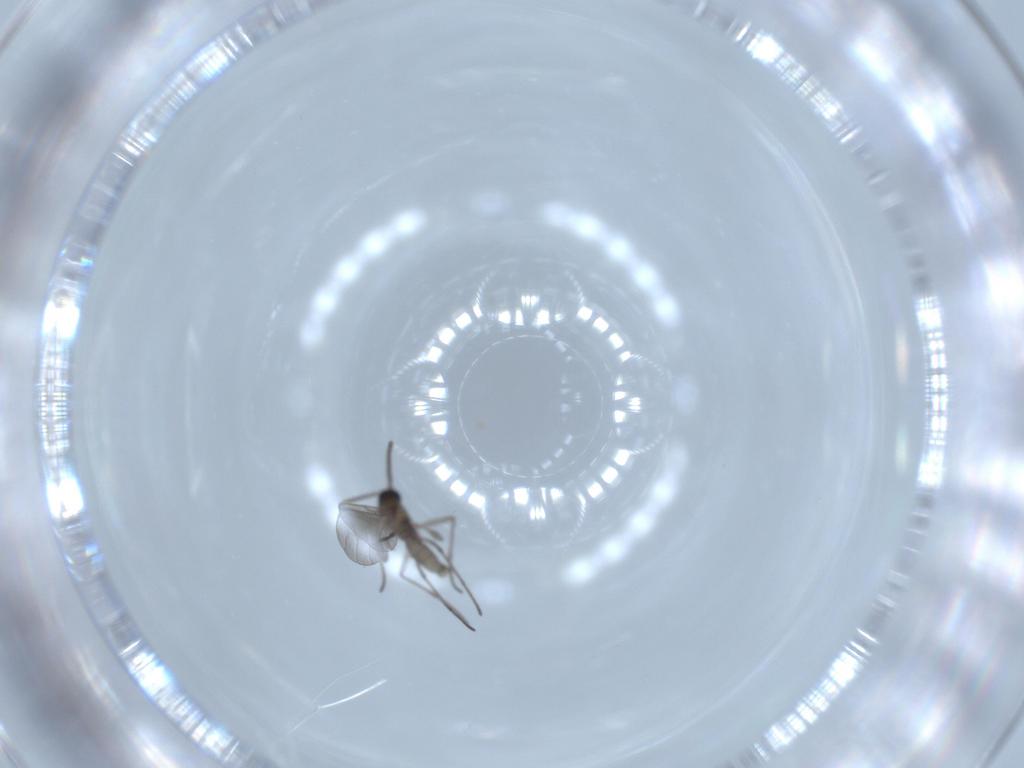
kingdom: Animalia
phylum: Arthropoda
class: Insecta
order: Diptera
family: Sciaridae
